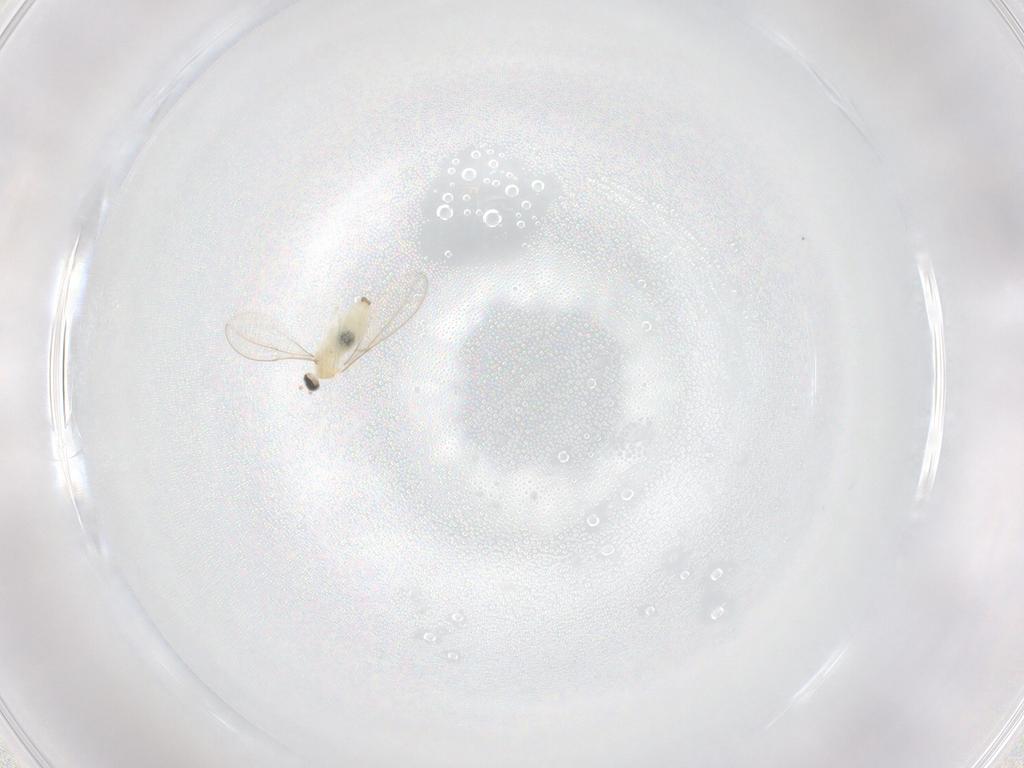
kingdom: Animalia
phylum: Arthropoda
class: Insecta
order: Diptera
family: Cecidomyiidae
